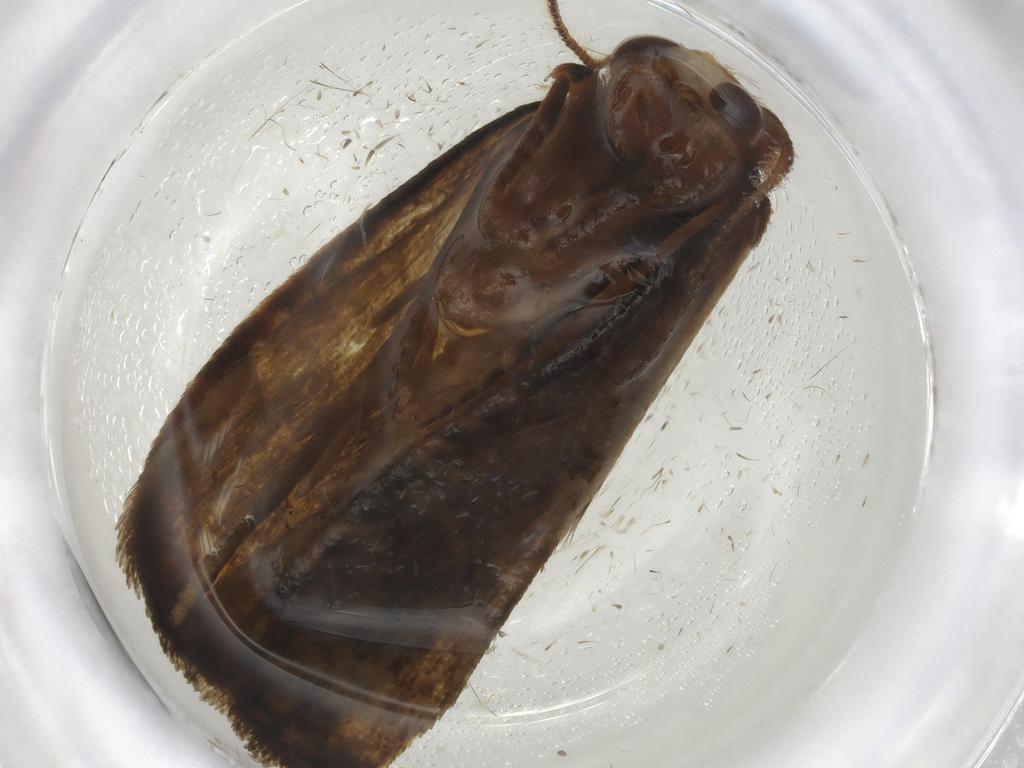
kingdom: Animalia
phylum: Arthropoda
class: Insecta
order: Lepidoptera
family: Geometridae
